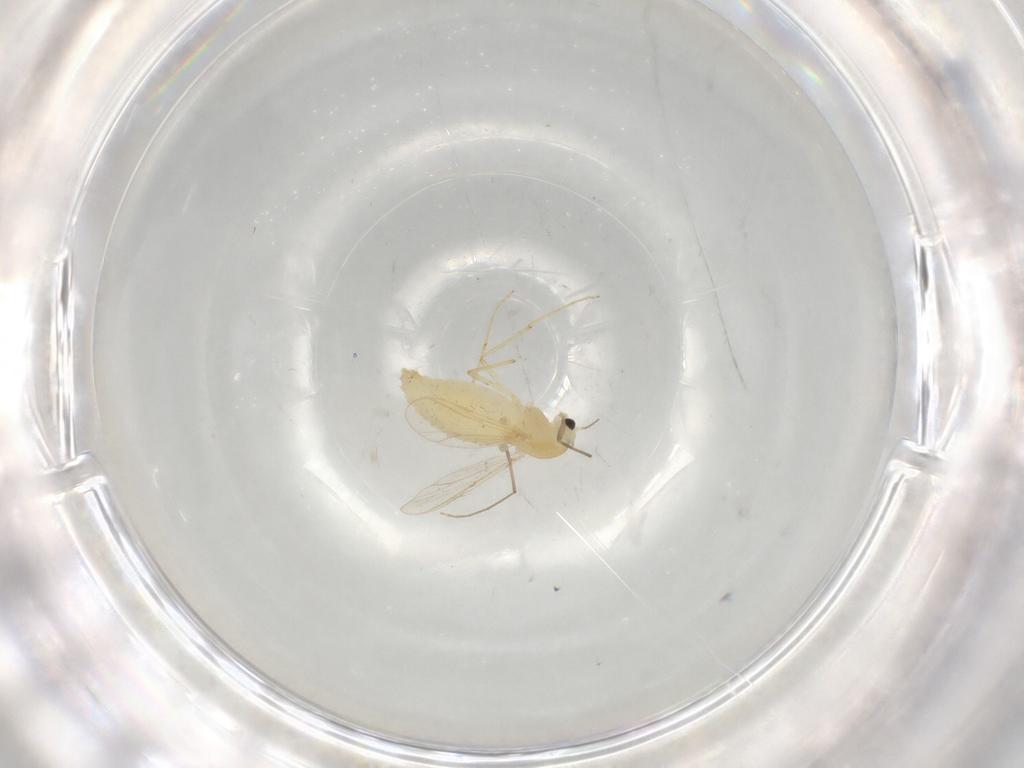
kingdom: Animalia
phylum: Arthropoda
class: Insecta
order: Diptera
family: Chironomidae
